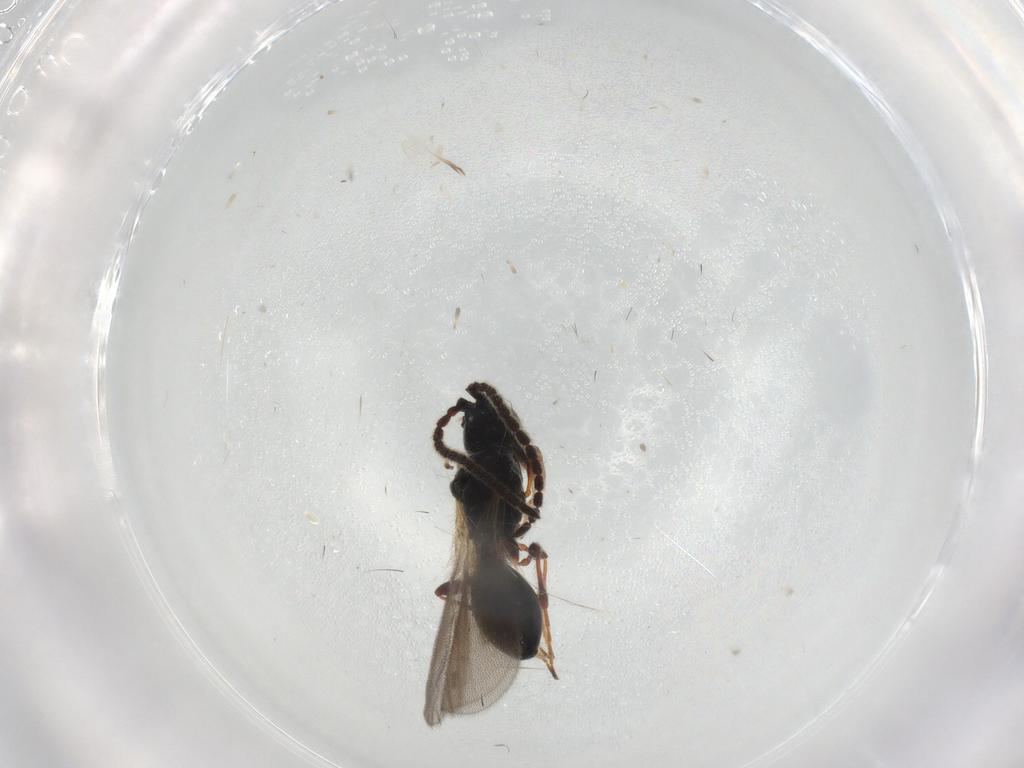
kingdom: Animalia
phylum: Arthropoda
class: Insecta
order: Hymenoptera
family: Diapriidae
